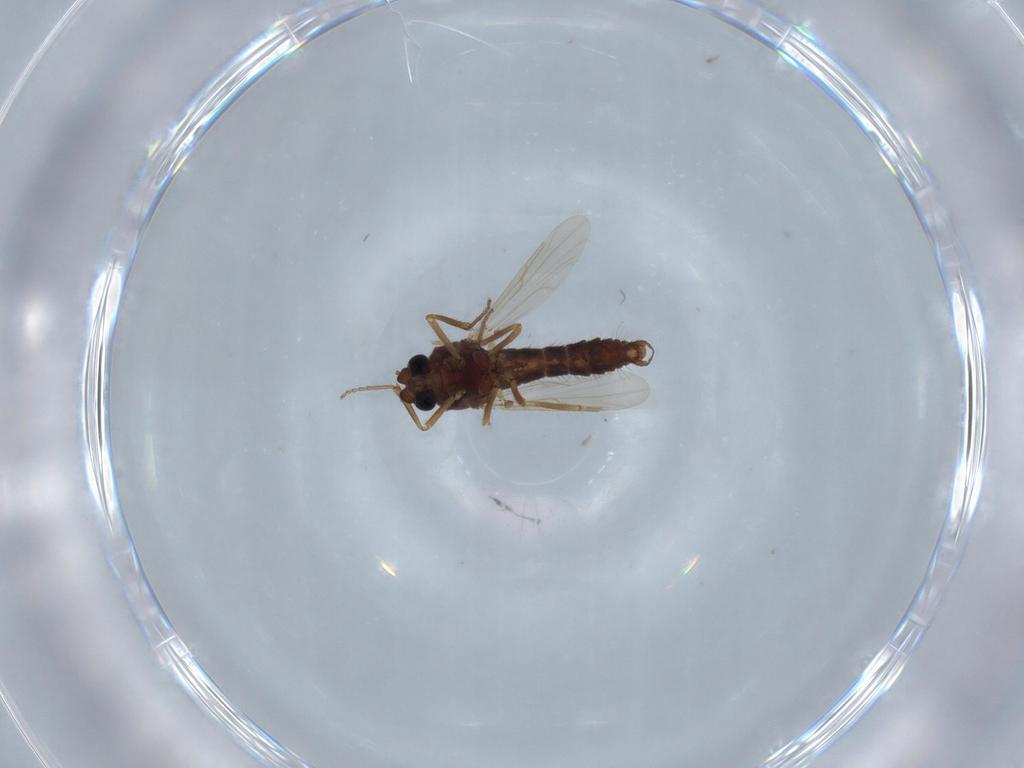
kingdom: Animalia
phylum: Arthropoda
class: Insecta
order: Diptera
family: Ceratopogonidae
